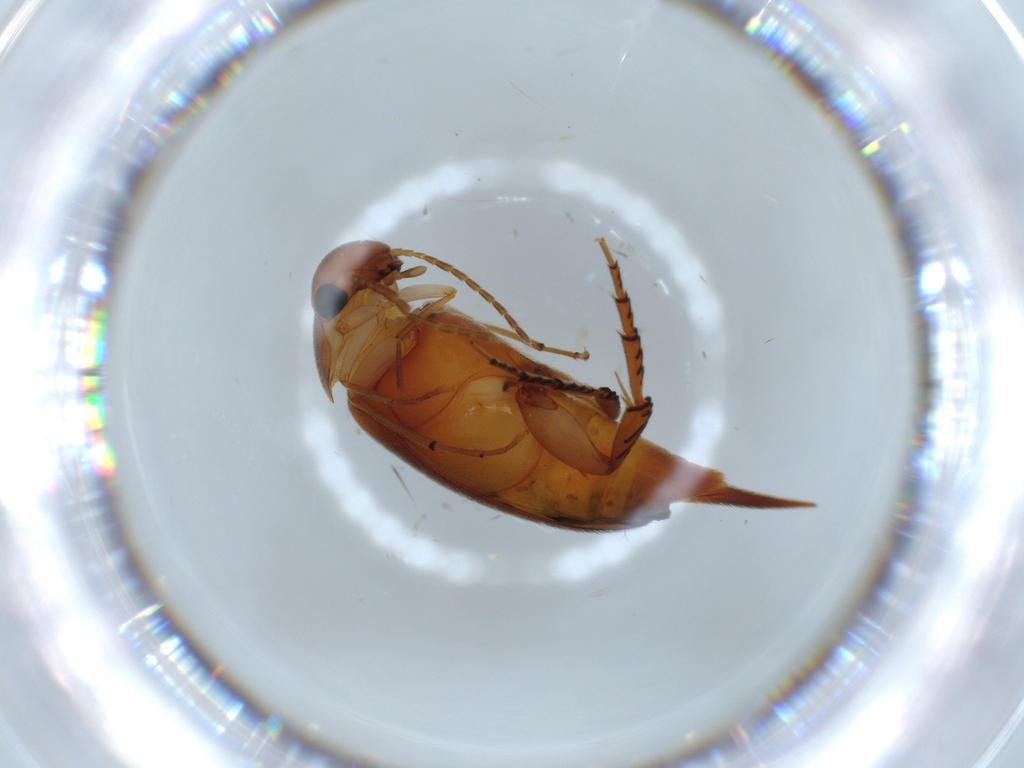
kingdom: Animalia
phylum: Arthropoda
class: Insecta
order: Coleoptera
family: Mordellidae
